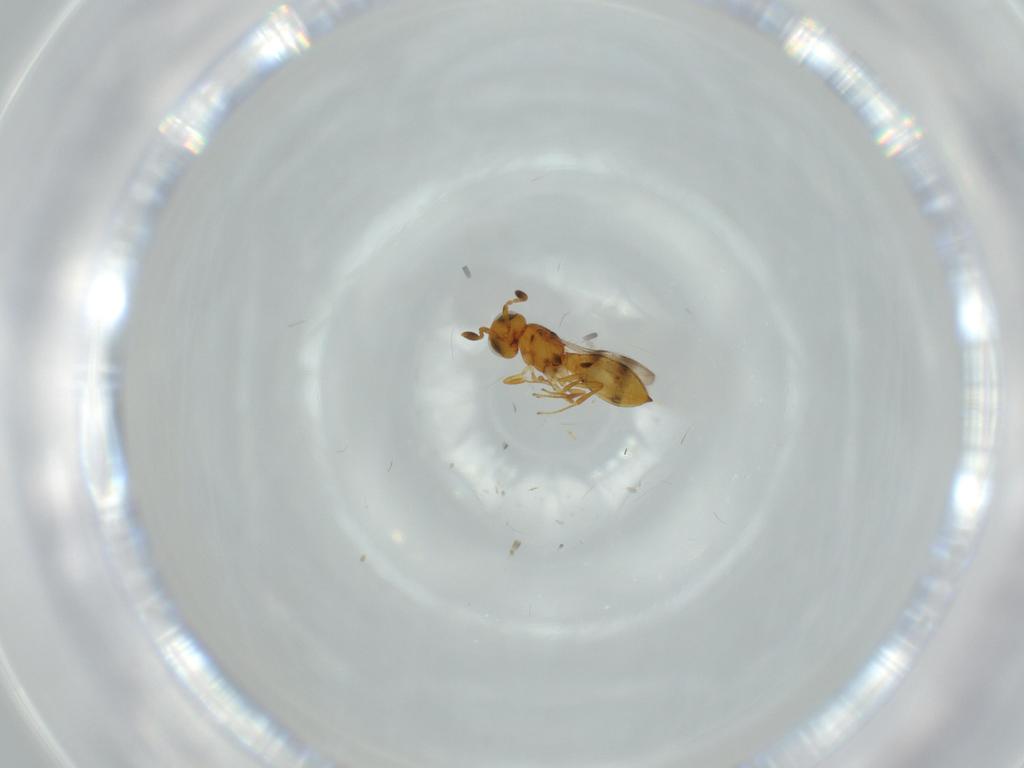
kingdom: Animalia
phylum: Arthropoda
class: Insecta
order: Hymenoptera
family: Scelionidae
